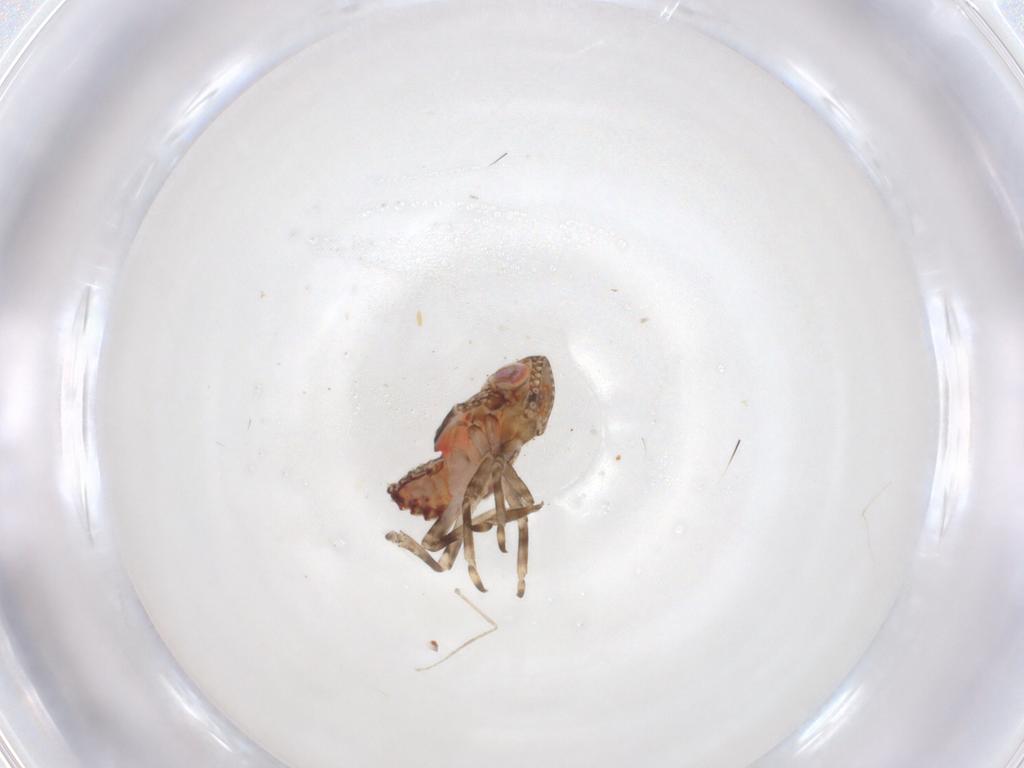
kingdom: Animalia
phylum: Arthropoda
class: Insecta
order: Hemiptera
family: Tropiduchidae
